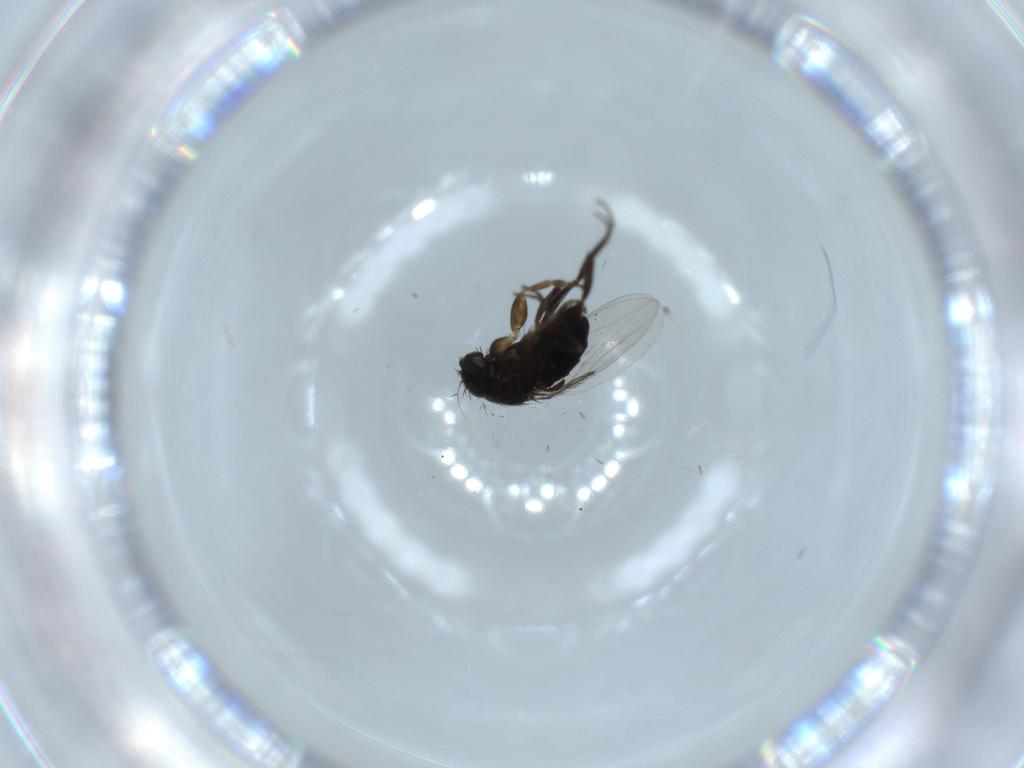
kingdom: Animalia
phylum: Arthropoda
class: Insecta
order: Diptera
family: Phoridae
